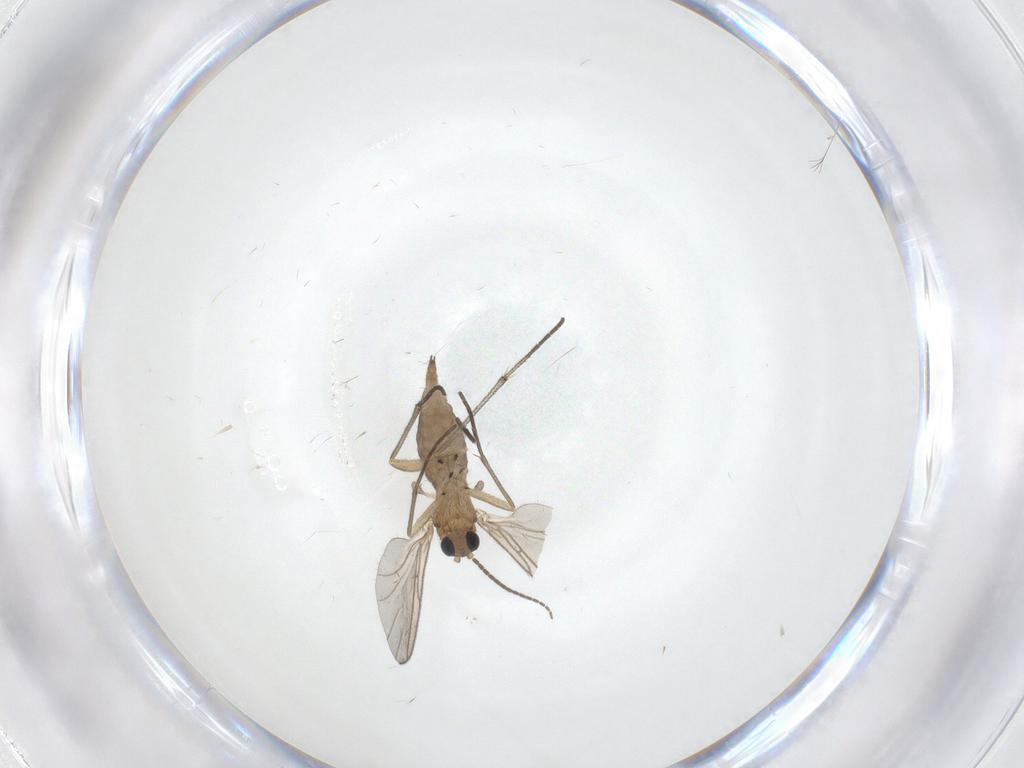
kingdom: Animalia
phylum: Arthropoda
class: Insecta
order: Diptera
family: Sciaridae
